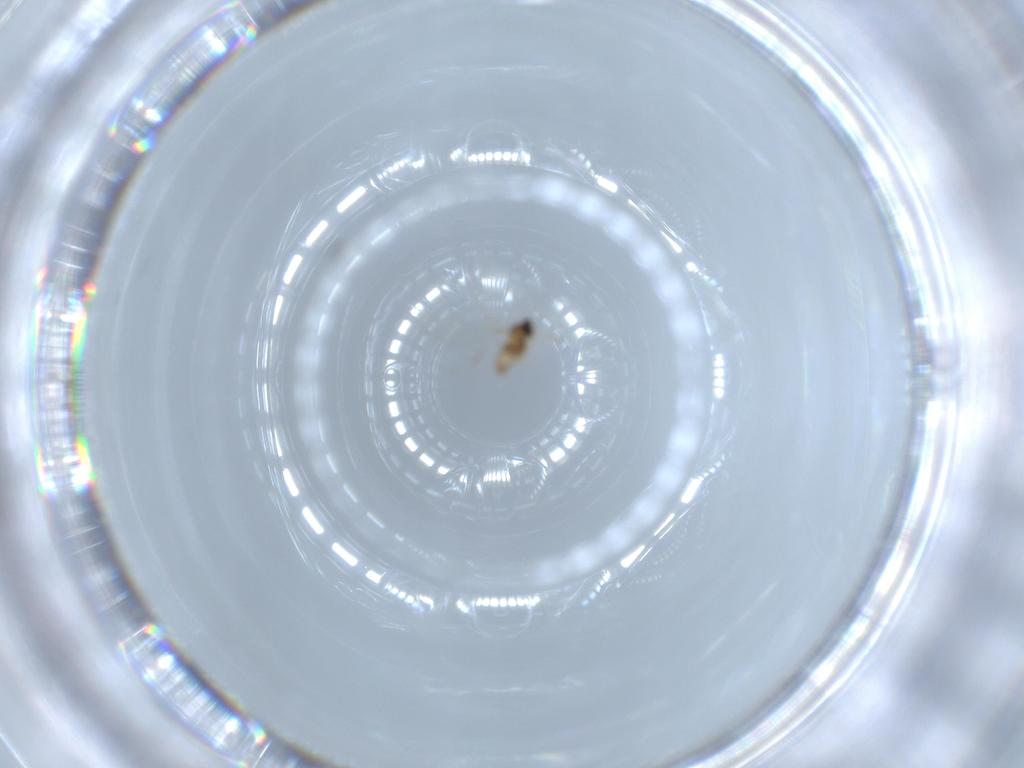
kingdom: Animalia
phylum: Arthropoda
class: Insecta
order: Diptera
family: Cecidomyiidae
